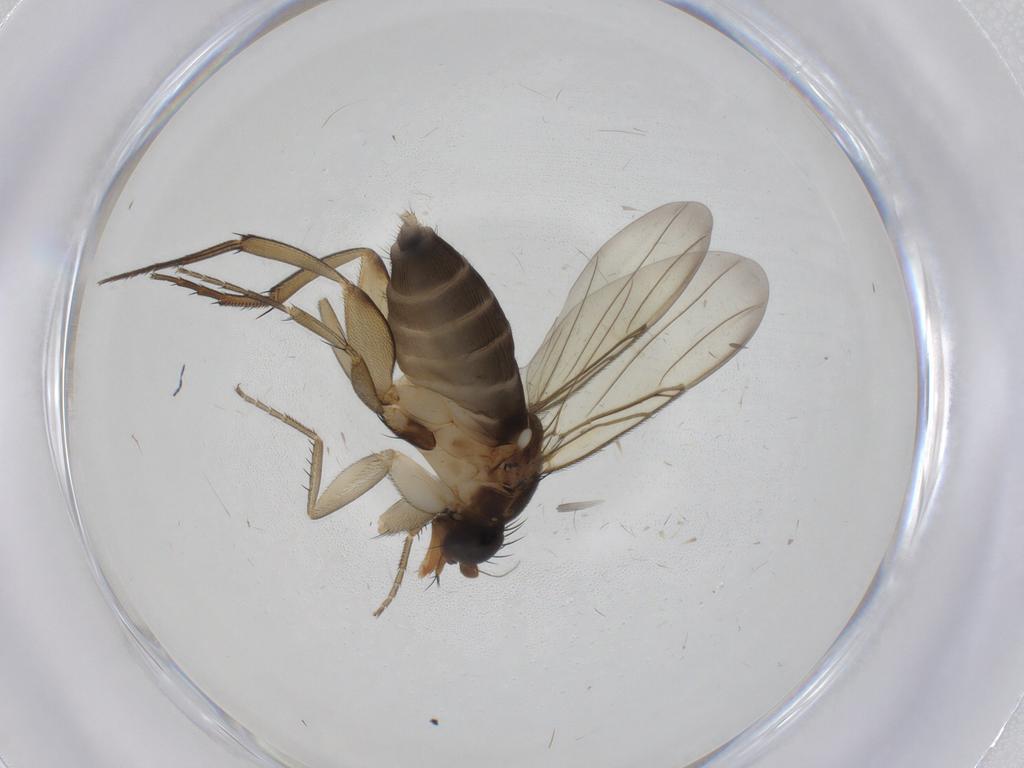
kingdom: Animalia
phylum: Arthropoda
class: Insecta
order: Diptera
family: Phoridae
